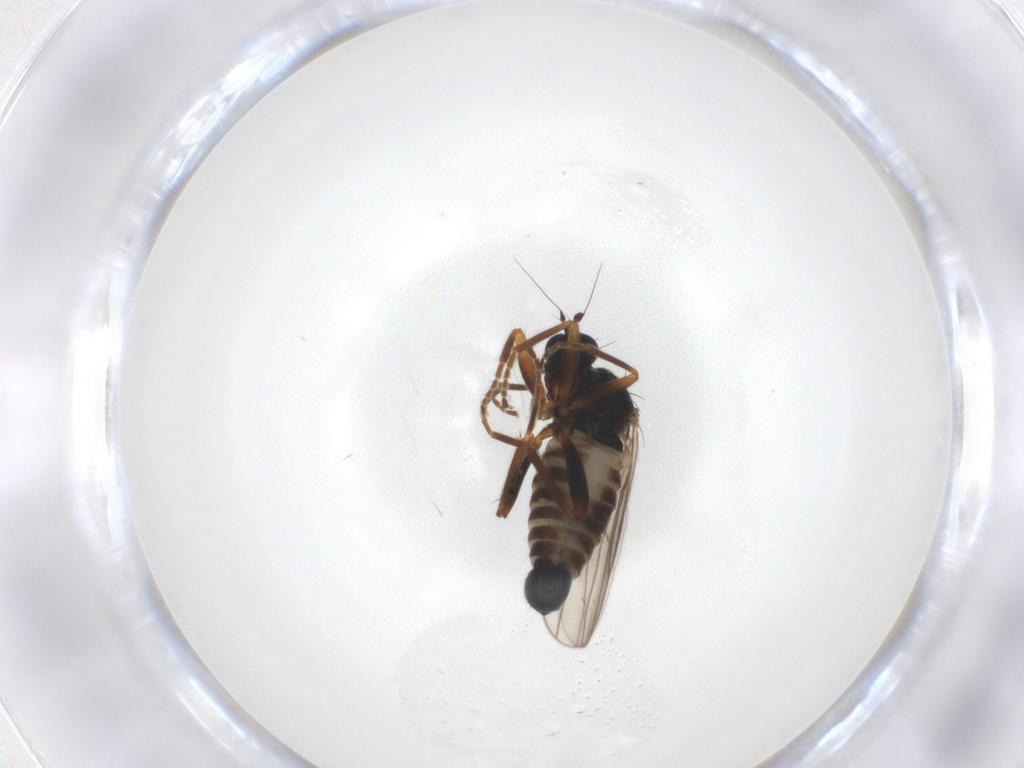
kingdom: Animalia
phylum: Arthropoda
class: Insecta
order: Diptera
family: Hybotidae
